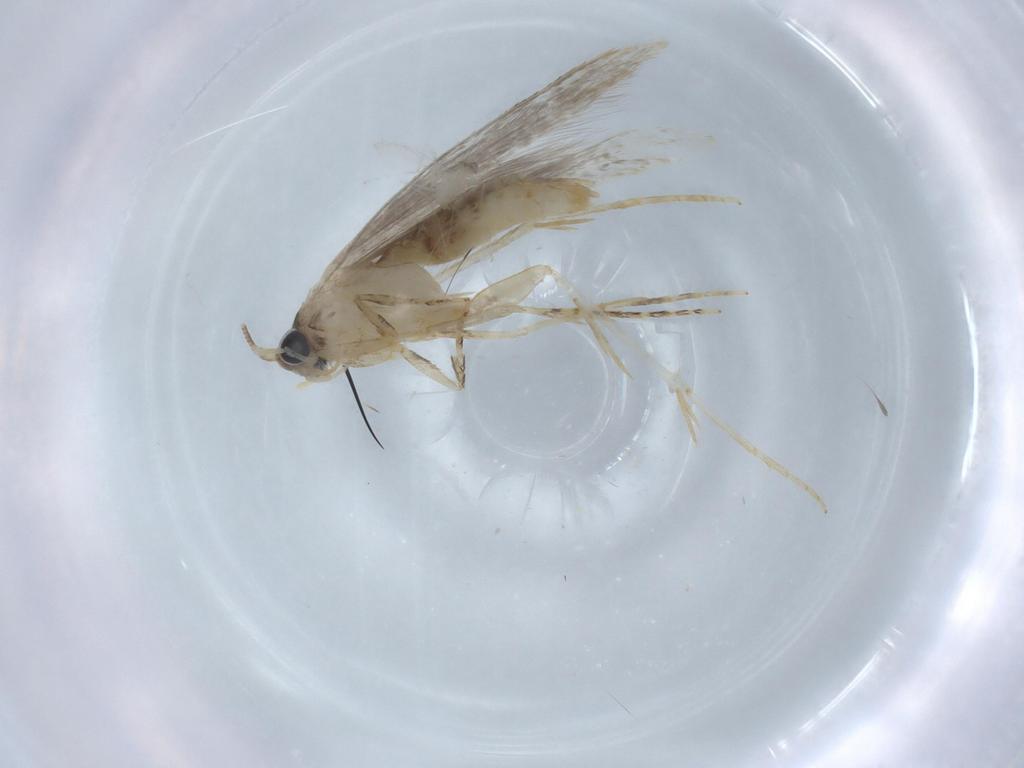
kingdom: Animalia
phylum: Arthropoda
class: Insecta
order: Lepidoptera
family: Tineidae
